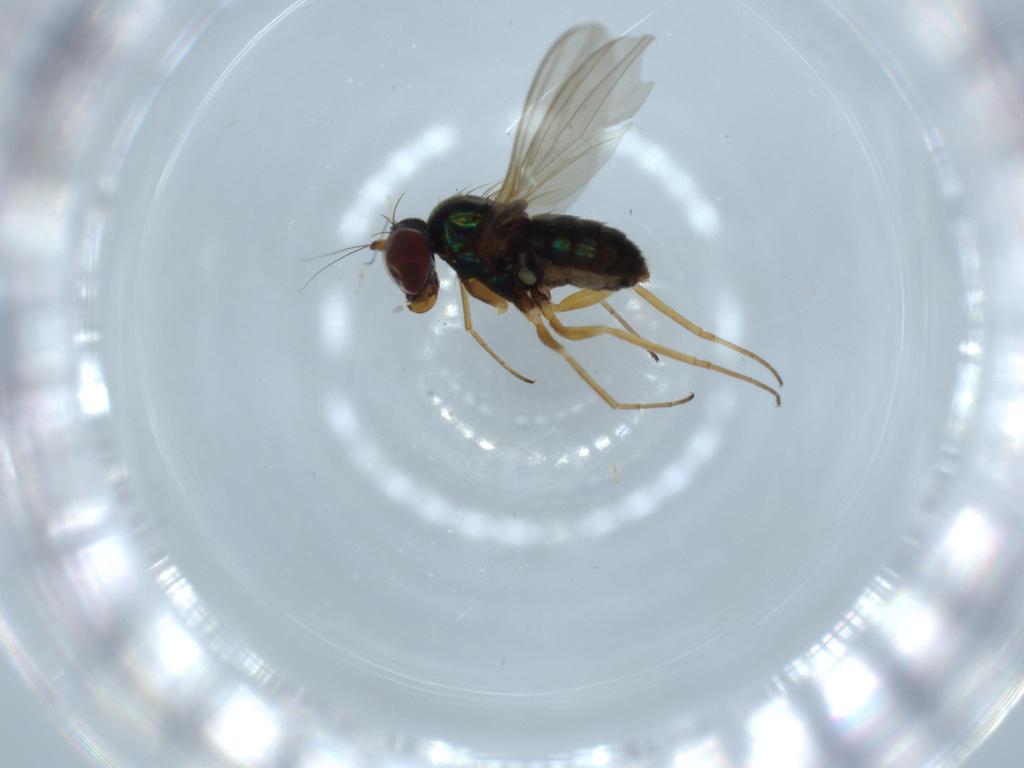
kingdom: Animalia
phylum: Arthropoda
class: Insecta
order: Diptera
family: Dolichopodidae
